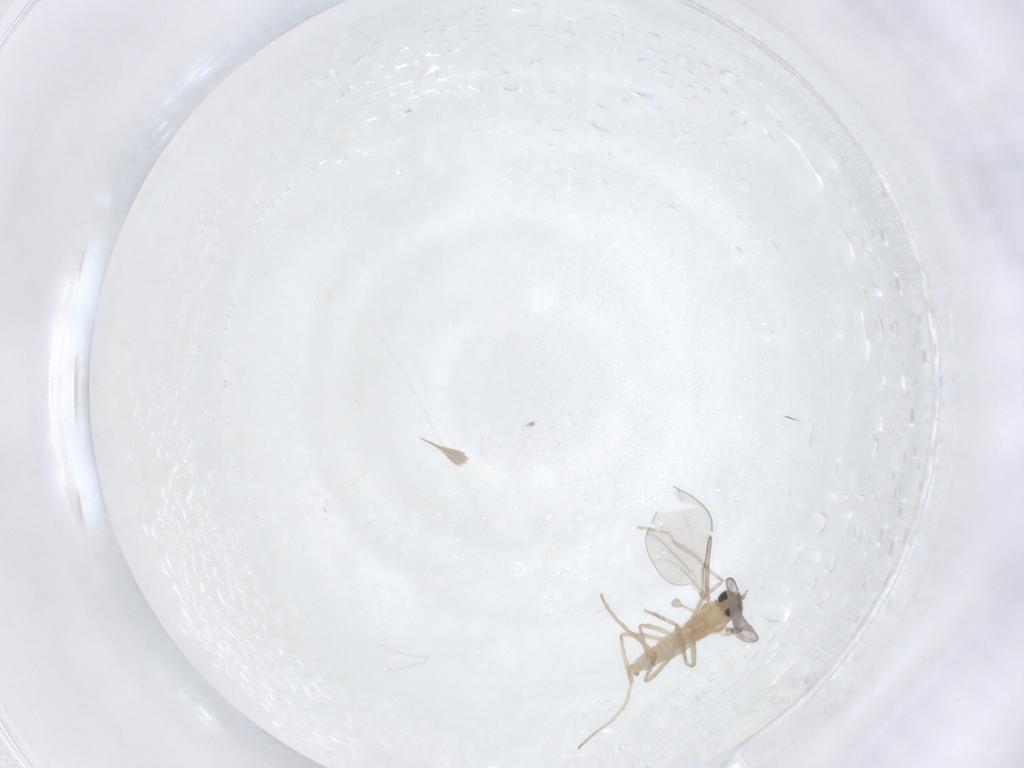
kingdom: Animalia
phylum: Arthropoda
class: Insecta
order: Diptera
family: Cecidomyiidae
